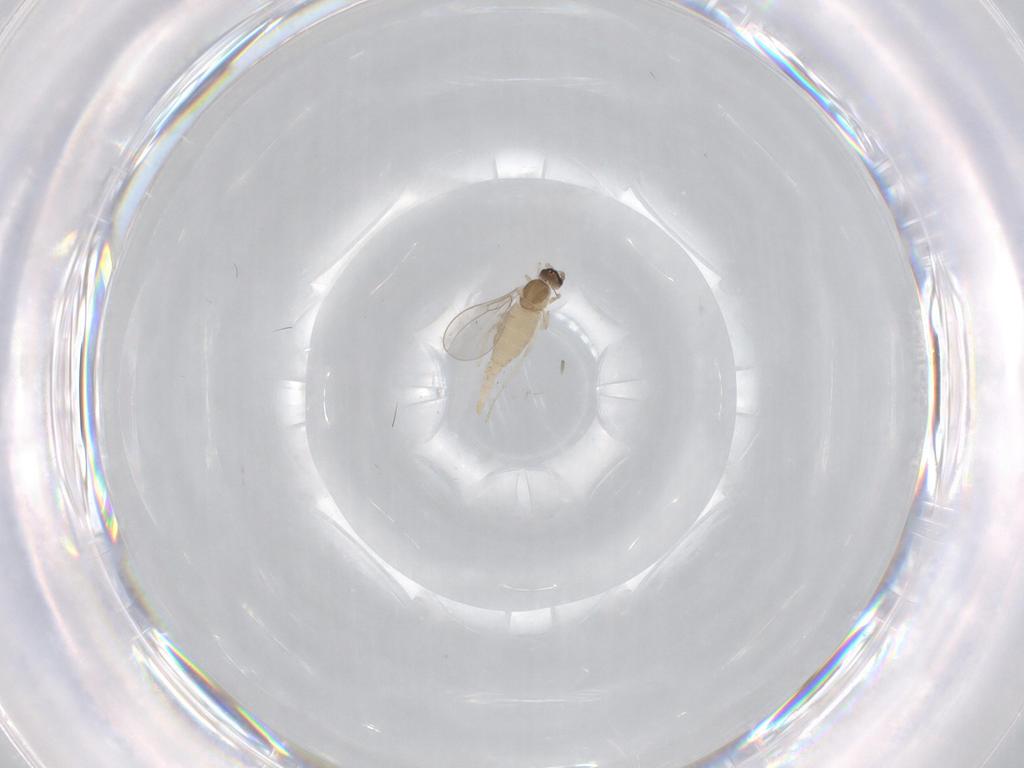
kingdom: Animalia
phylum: Arthropoda
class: Insecta
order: Diptera
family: Cecidomyiidae
